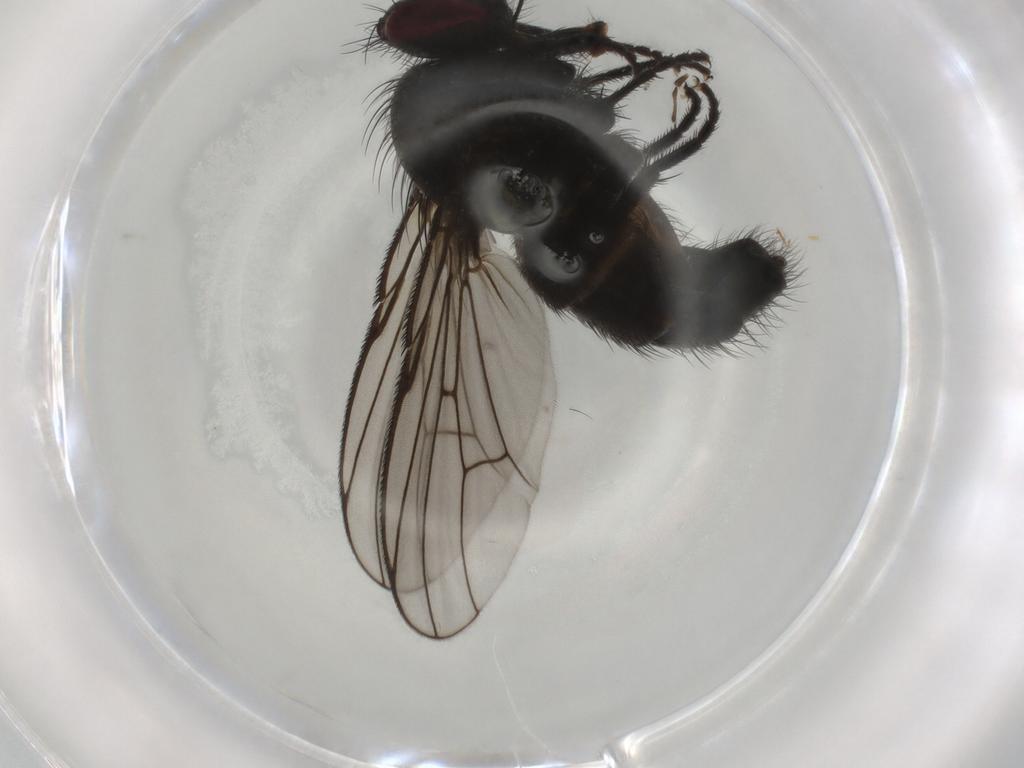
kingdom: Animalia
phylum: Arthropoda
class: Insecta
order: Diptera
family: Muscidae
